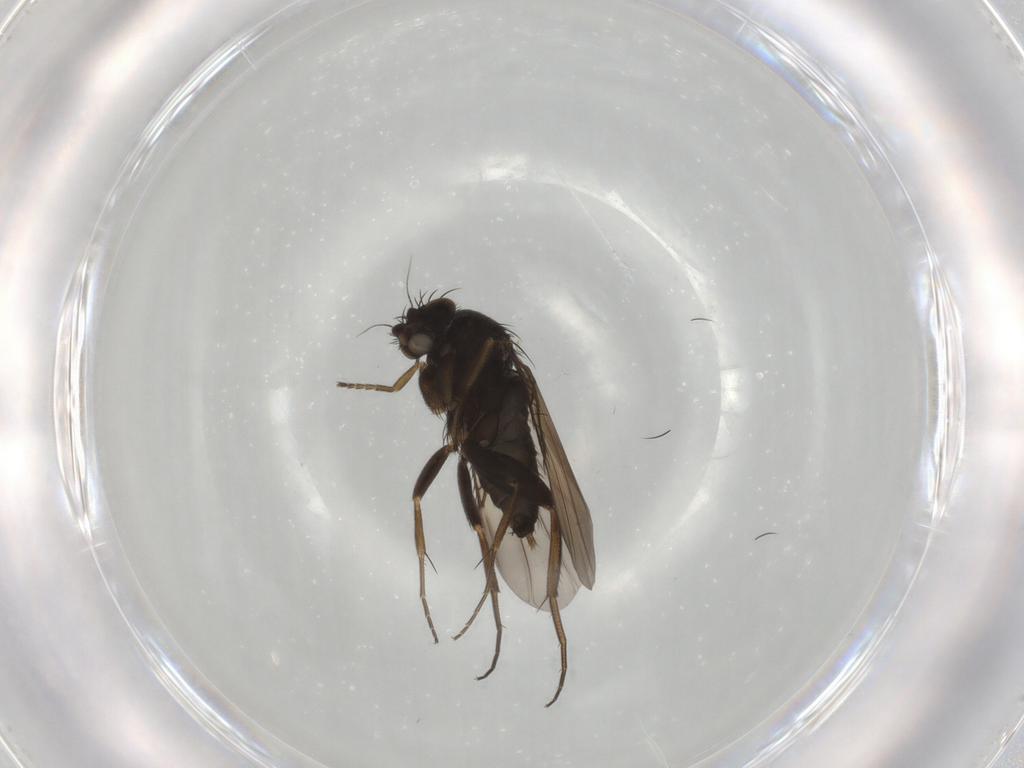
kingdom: Animalia
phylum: Arthropoda
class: Insecta
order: Diptera
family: Phoridae
